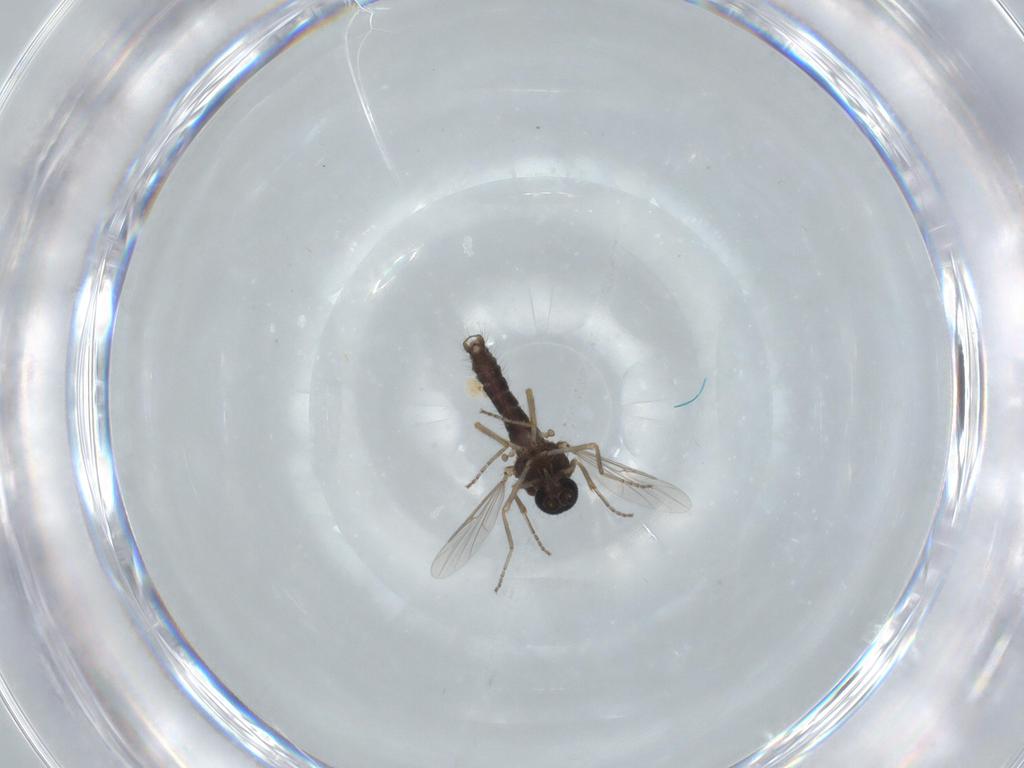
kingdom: Animalia
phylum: Arthropoda
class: Insecta
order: Diptera
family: Ceratopogonidae
